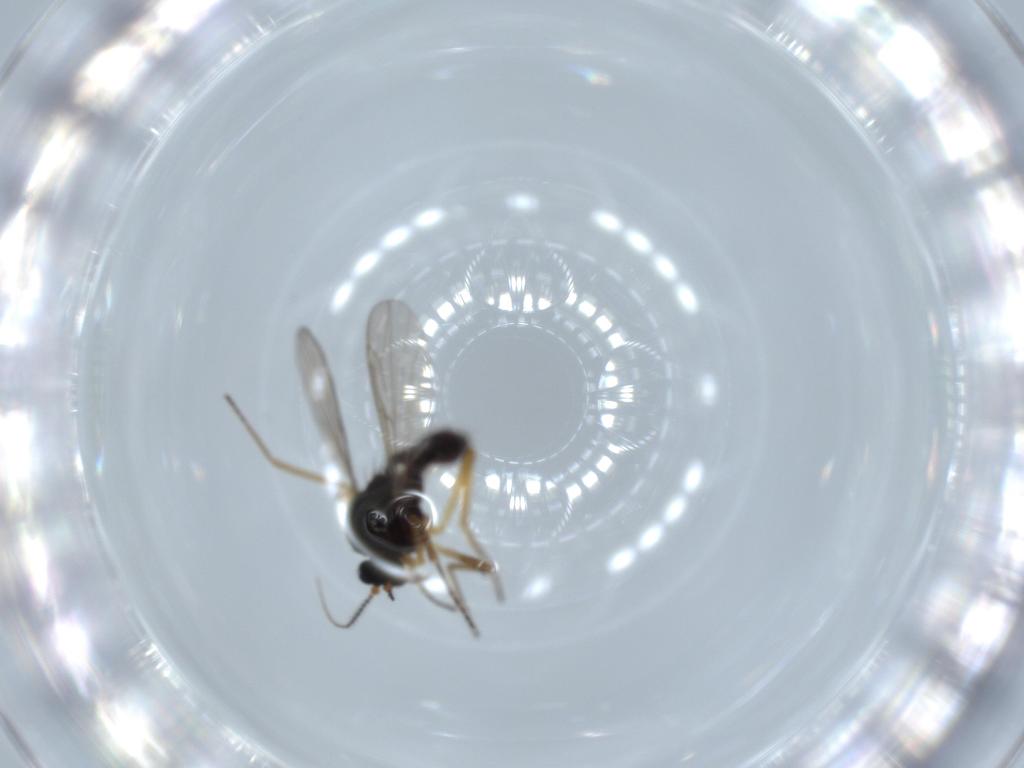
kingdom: Animalia
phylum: Arthropoda
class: Insecta
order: Diptera
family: Ceratopogonidae
